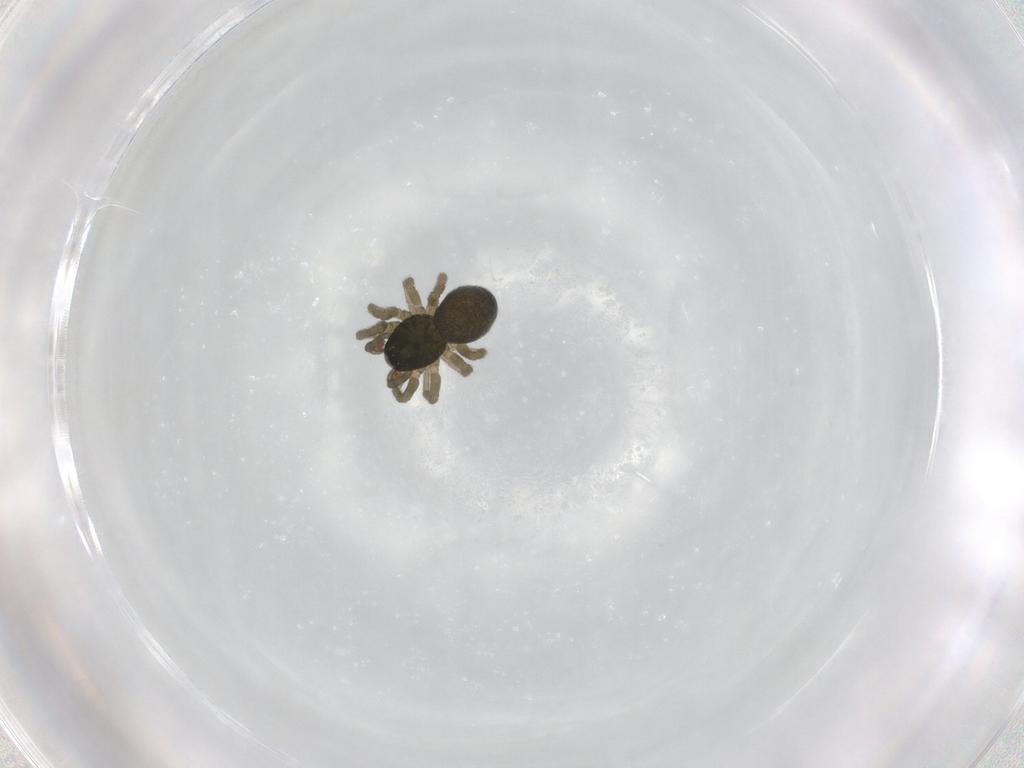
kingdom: Animalia
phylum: Arthropoda
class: Arachnida
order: Araneae
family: Linyphiidae
